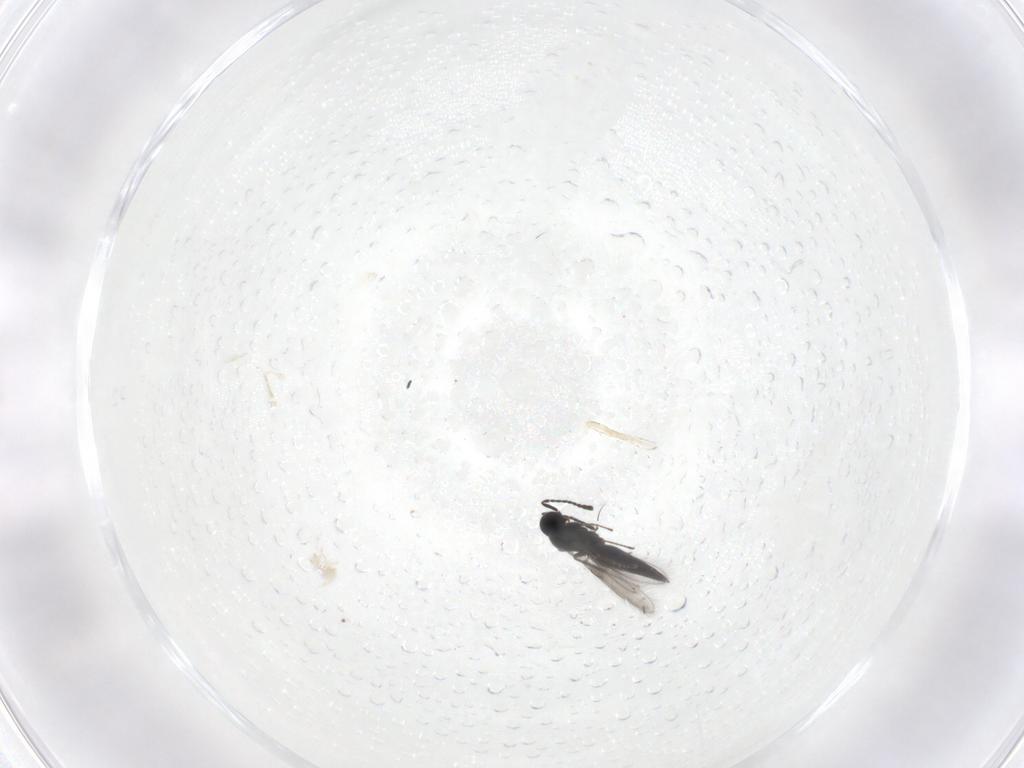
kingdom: Animalia
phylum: Arthropoda
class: Insecta
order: Hymenoptera
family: Scelionidae
